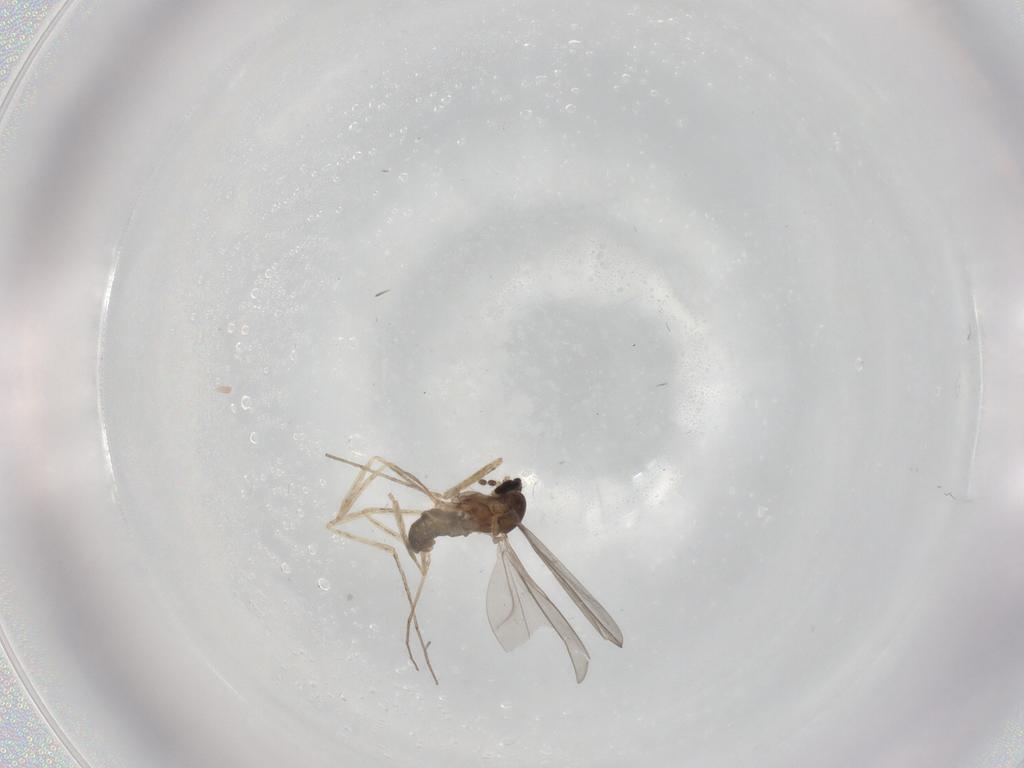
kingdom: Animalia
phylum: Arthropoda
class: Insecta
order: Diptera
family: Cecidomyiidae
